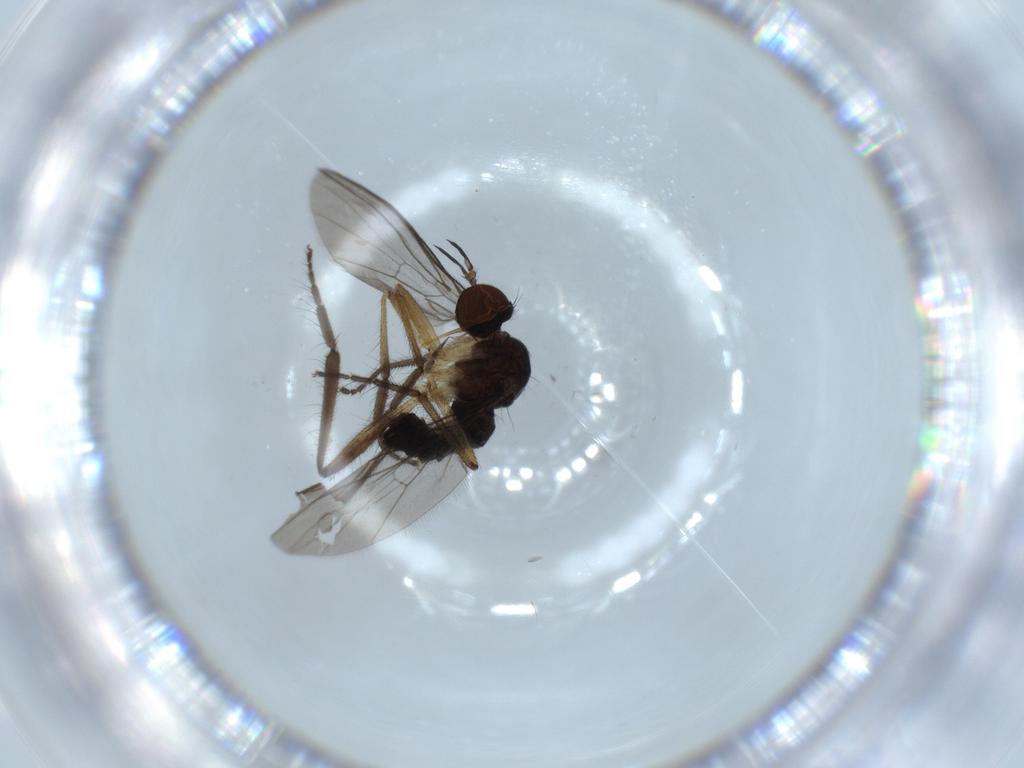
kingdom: Animalia
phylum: Arthropoda
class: Insecta
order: Diptera
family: Empididae
